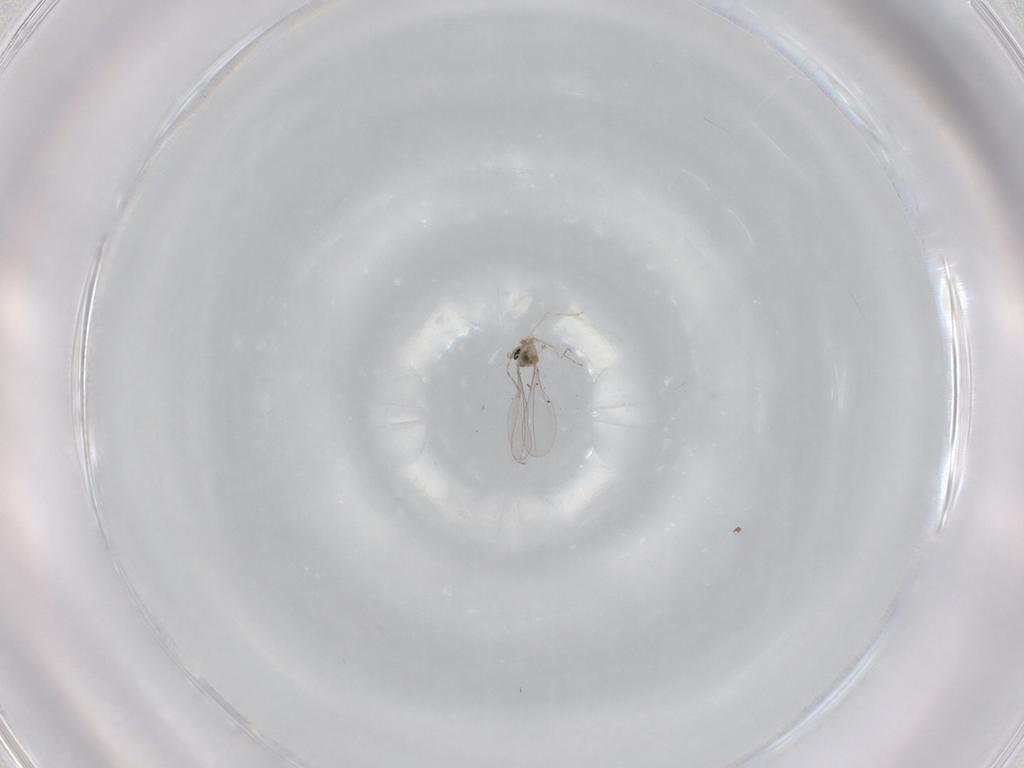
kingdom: Animalia
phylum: Arthropoda
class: Insecta
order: Diptera
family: Sciaridae
